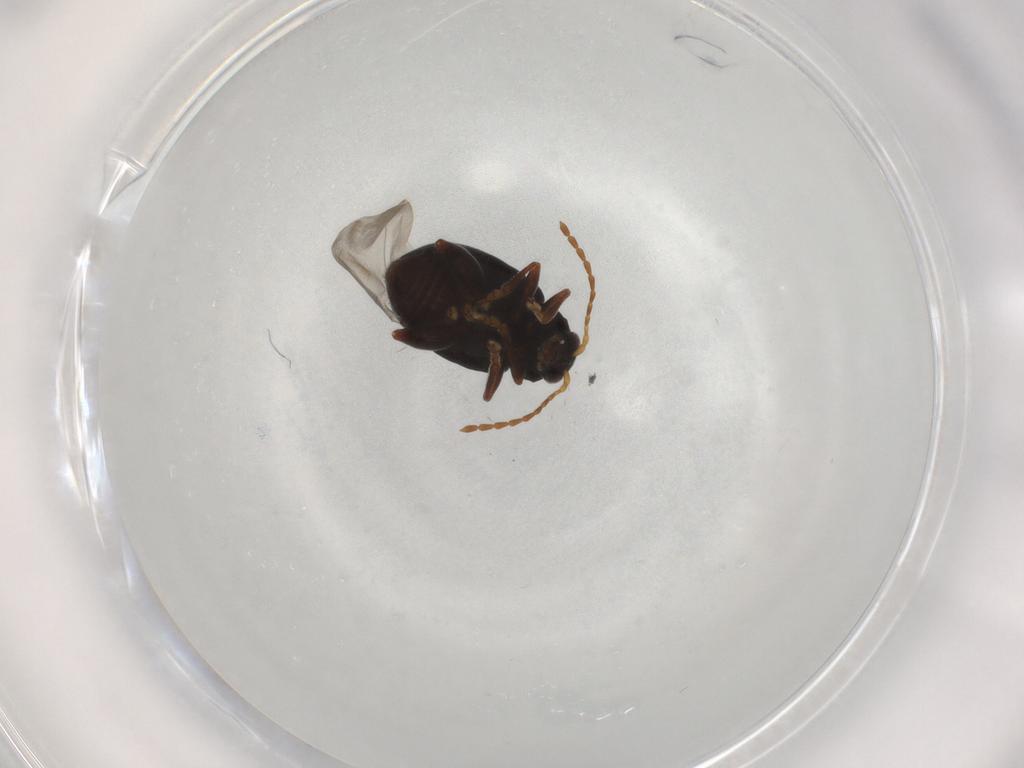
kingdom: Animalia
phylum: Arthropoda
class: Insecta
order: Coleoptera
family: Chrysomelidae
